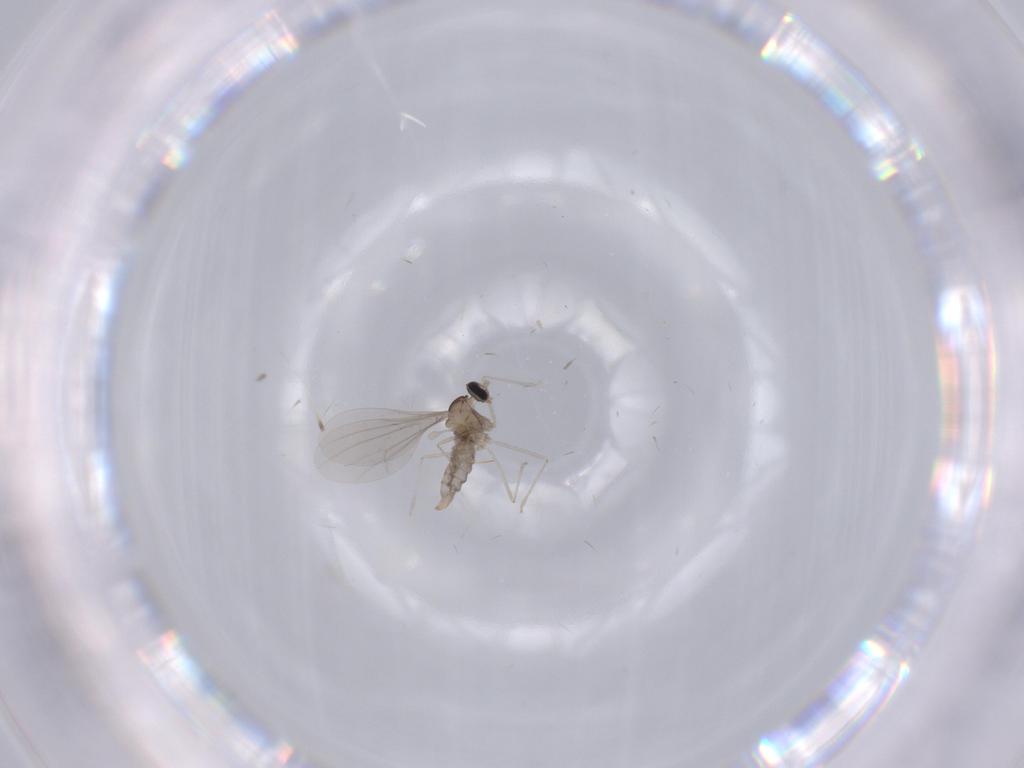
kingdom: Animalia
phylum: Arthropoda
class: Insecta
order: Diptera
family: Cecidomyiidae
